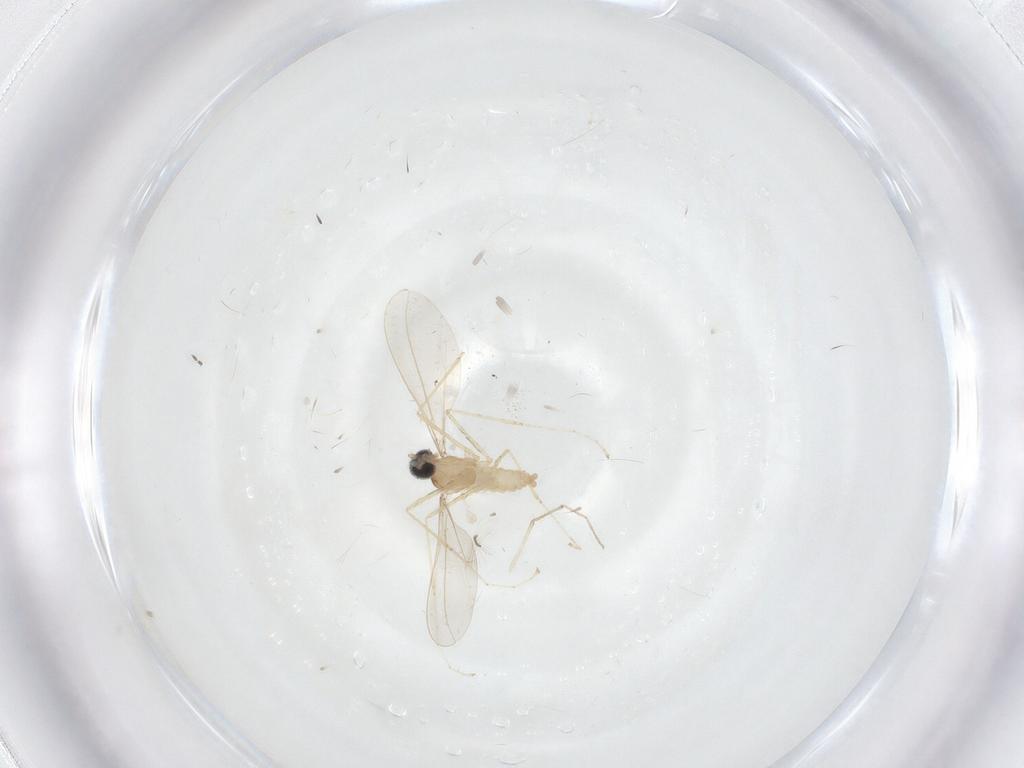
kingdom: Animalia
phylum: Arthropoda
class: Insecta
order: Diptera
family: Cecidomyiidae
